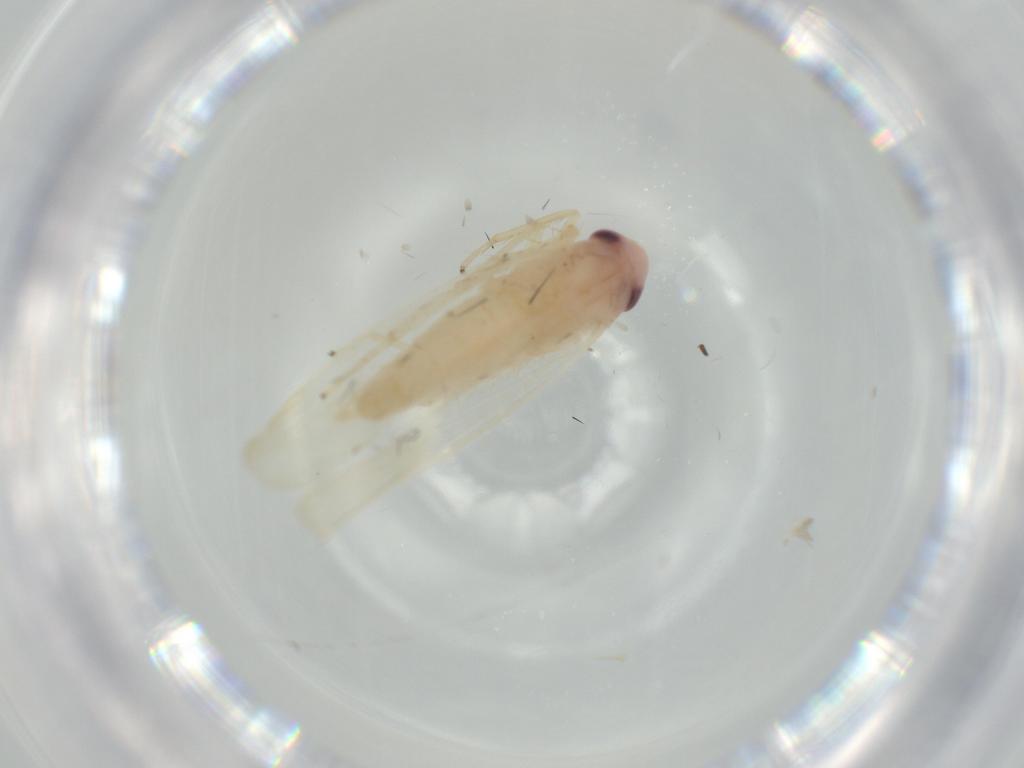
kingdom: Animalia
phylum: Arthropoda
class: Insecta
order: Hemiptera
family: Cicadellidae
